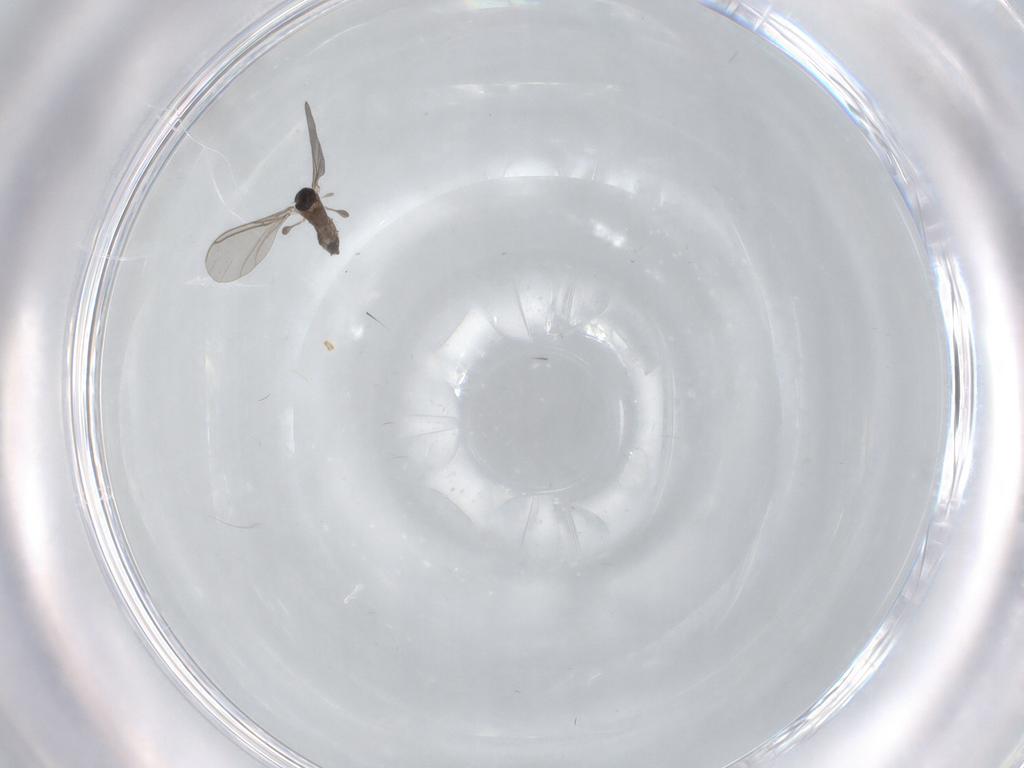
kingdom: Animalia
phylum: Arthropoda
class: Insecta
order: Diptera
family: Sciaridae
